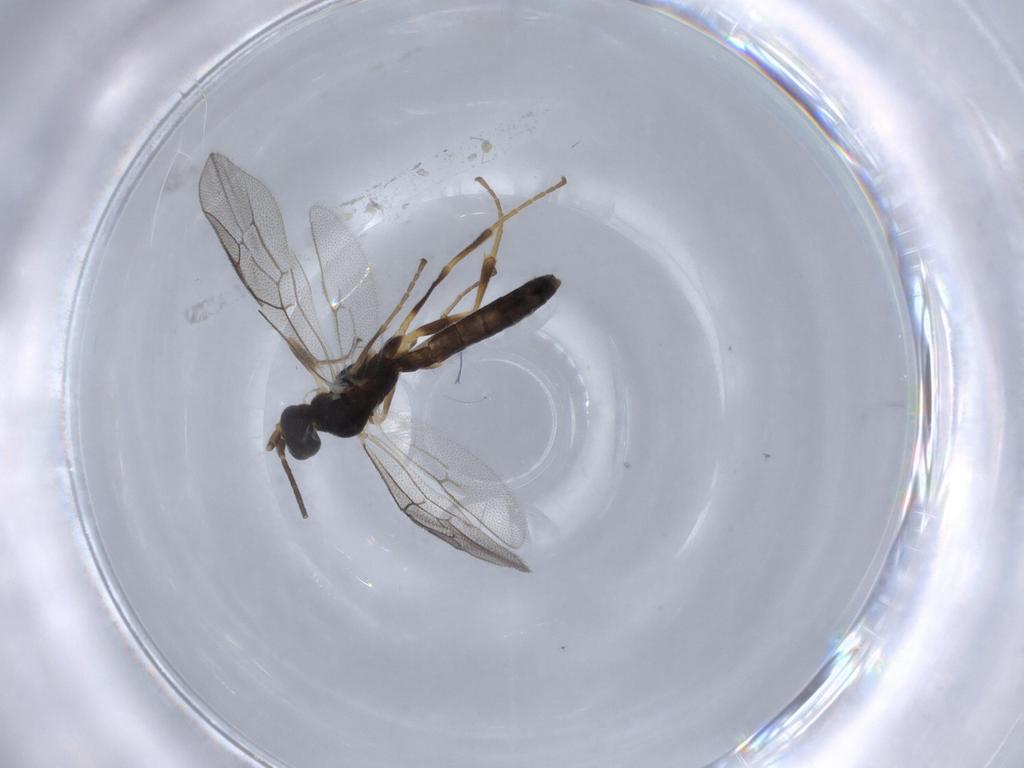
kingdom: Animalia
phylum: Arthropoda
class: Insecta
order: Hymenoptera
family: Ichneumonidae
